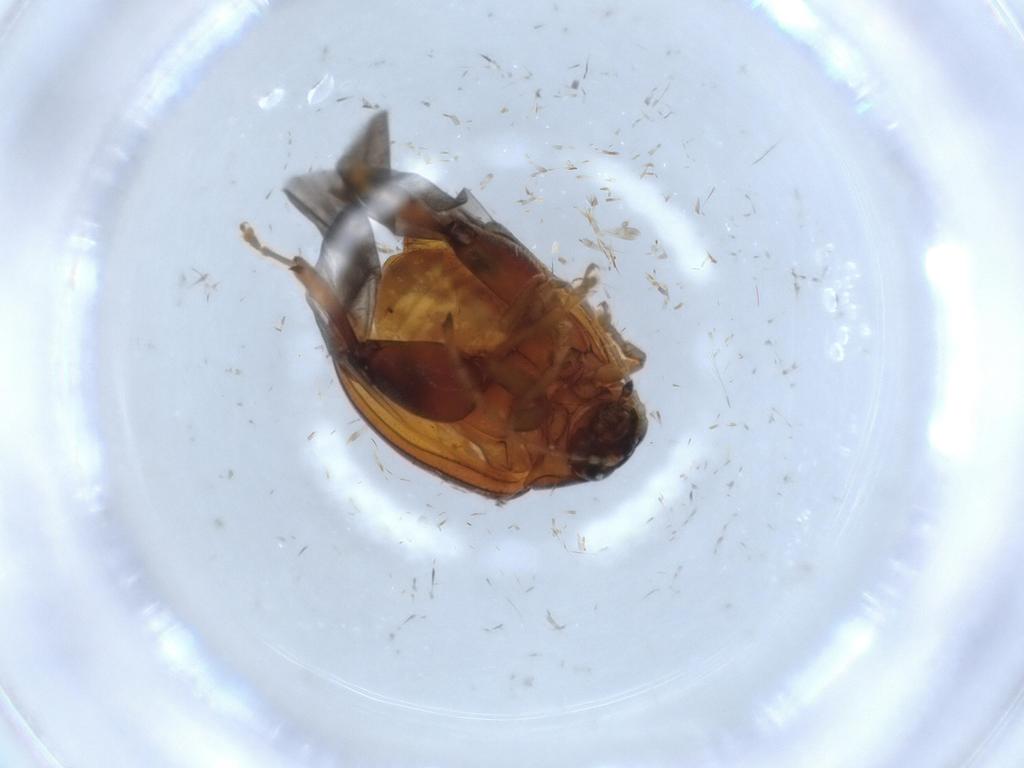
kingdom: Animalia
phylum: Arthropoda
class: Insecta
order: Coleoptera
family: Chrysomelidae
